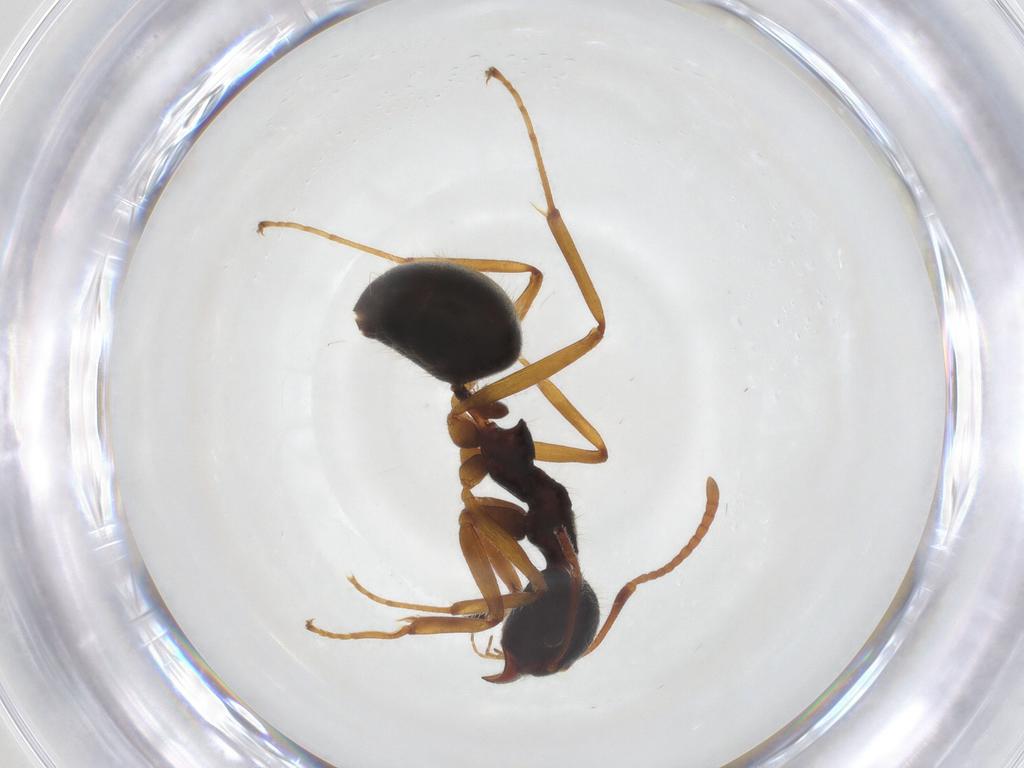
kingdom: Animalia
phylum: Arthropoda
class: Insecta
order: Hymenoptera
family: Formicidae
